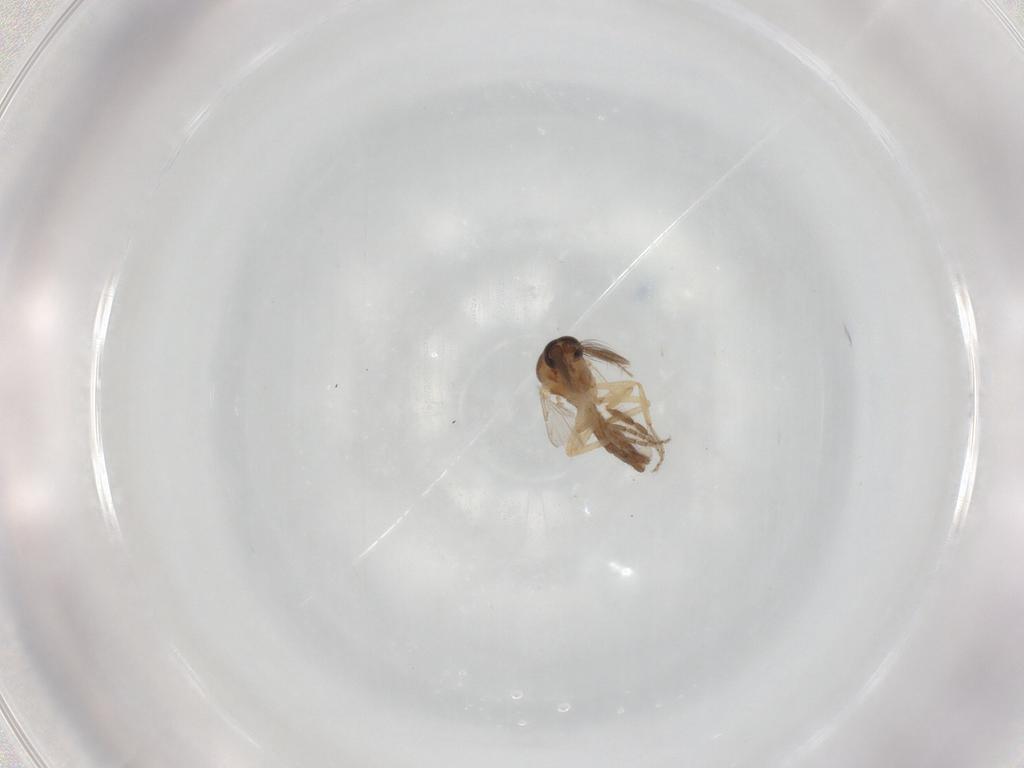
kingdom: Animalia
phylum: Arthropoda
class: Insecta
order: Diptera
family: Ceratopogonidae
